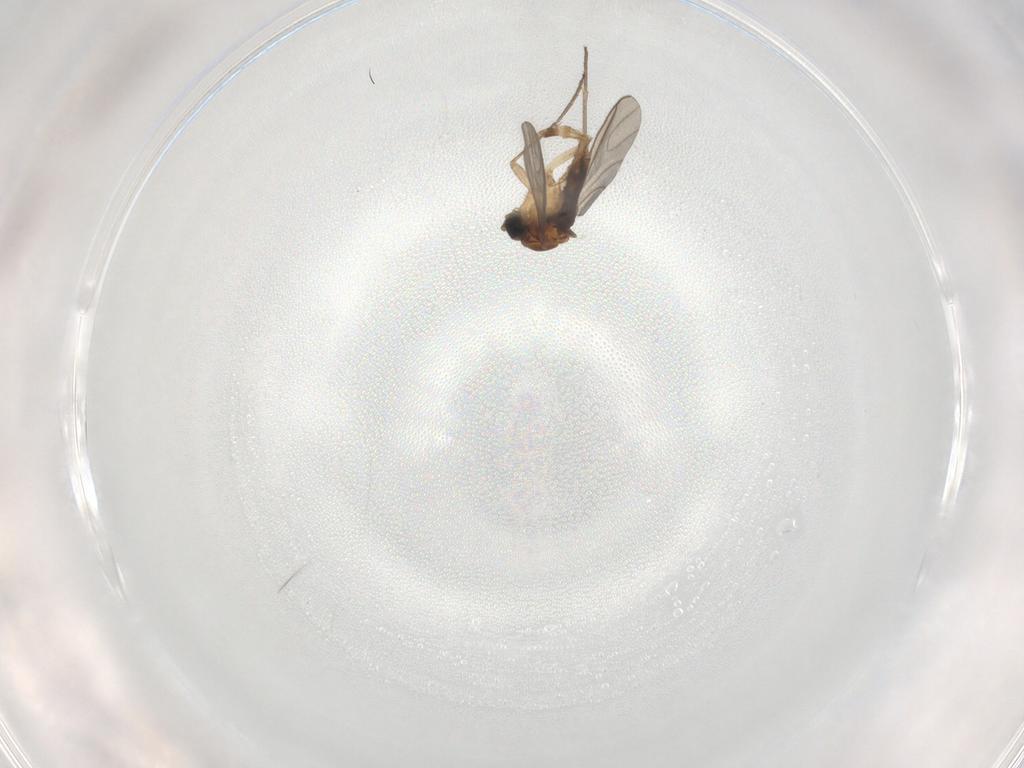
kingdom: Animalia
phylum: Arthropoda
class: Insecta
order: Diptera
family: Sciaridae
